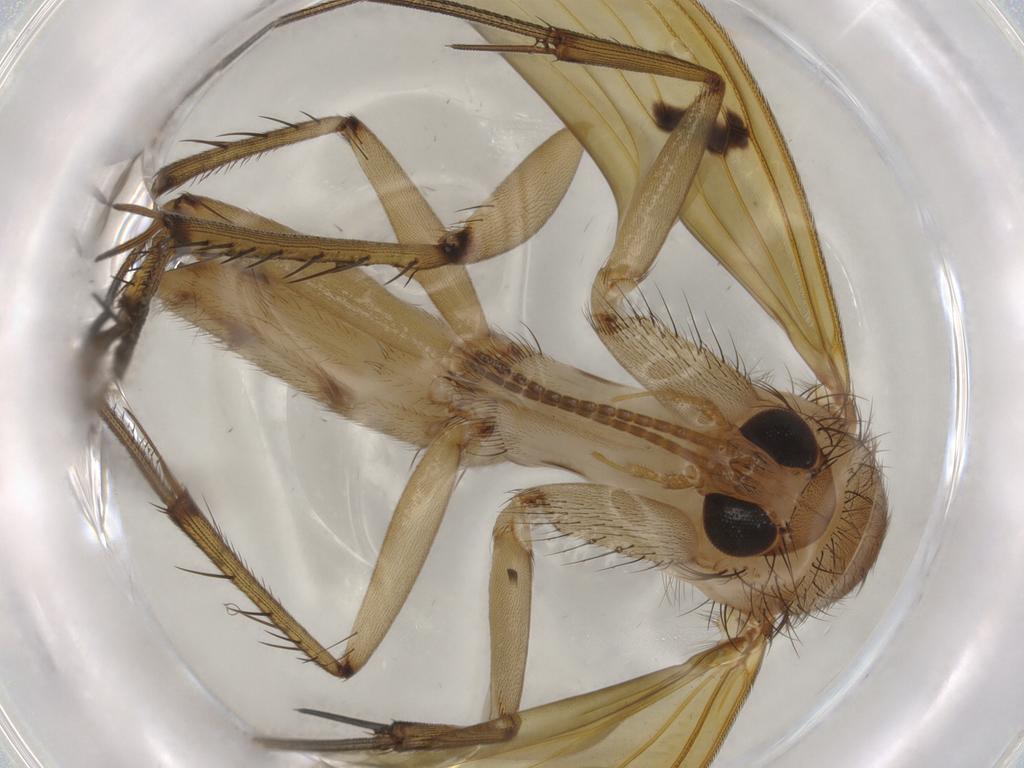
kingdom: Animalia
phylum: Arthropoda
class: Insecta
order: Diptera
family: Mycetophilidae
